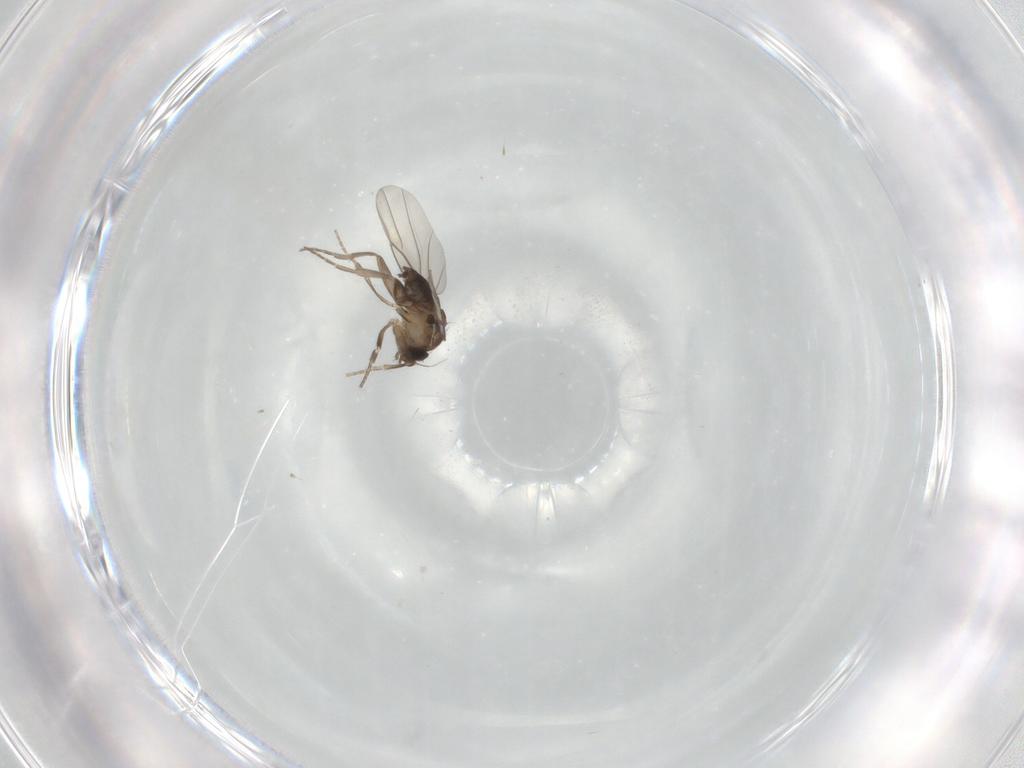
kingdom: Animalia
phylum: Arthropoda
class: Insecta
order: Diptera
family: Phoridae
